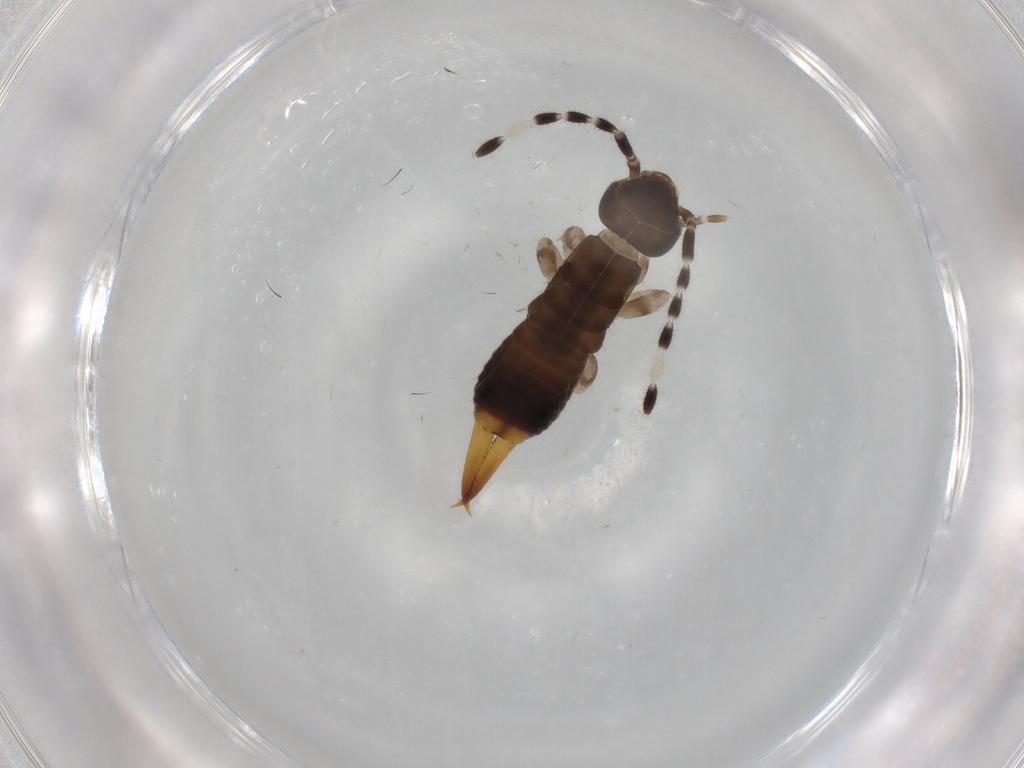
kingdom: Animalia
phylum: Arthropoda
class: Insecta
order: Dermaptera
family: Anisolabididae
